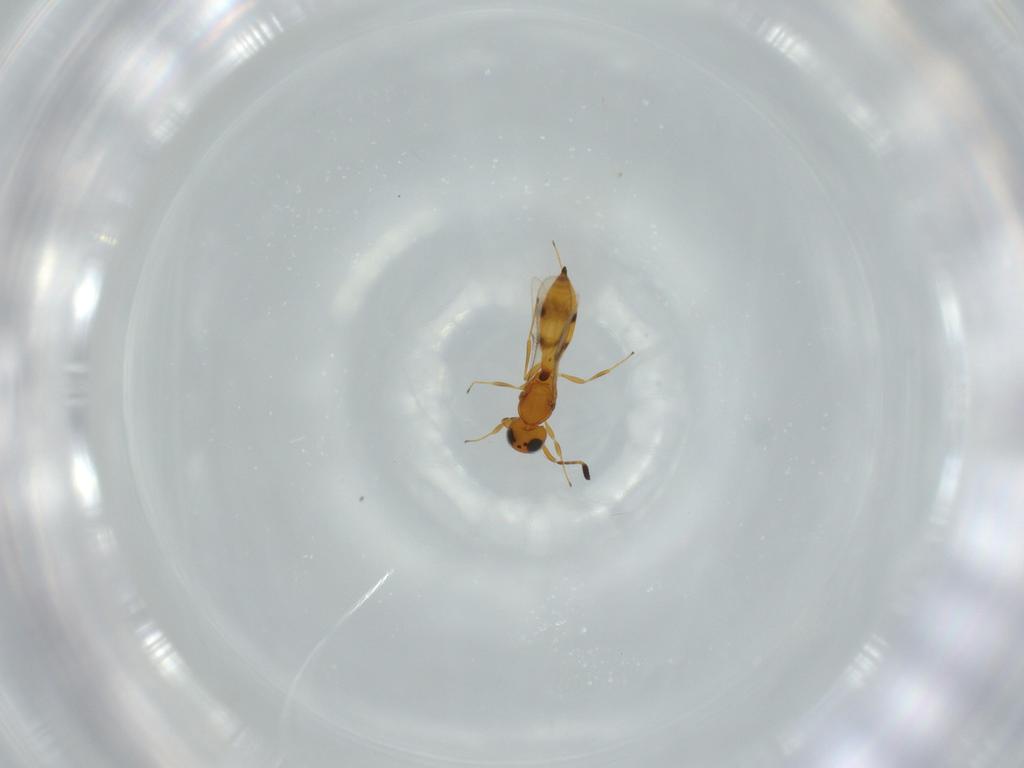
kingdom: Animalia
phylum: Arthropoda
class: Insecta
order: Hymenoptera
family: Scelionidae
